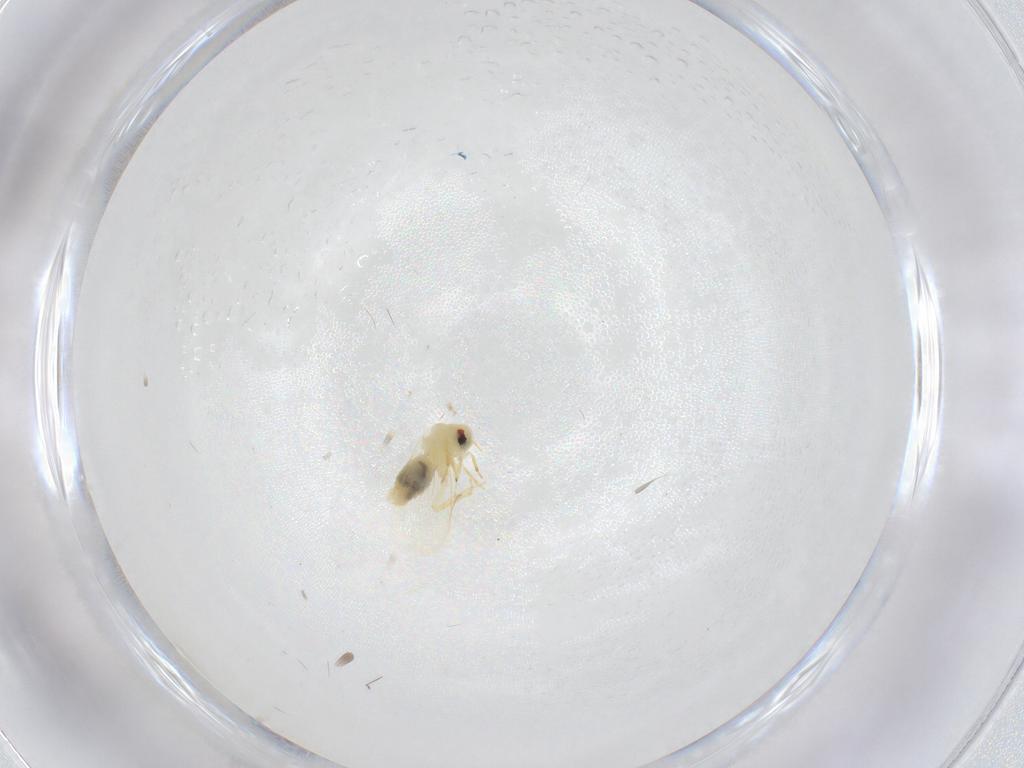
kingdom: Animalia
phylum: Arthropoda
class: Insecta
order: Hemiptera
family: Aleyrodidae
